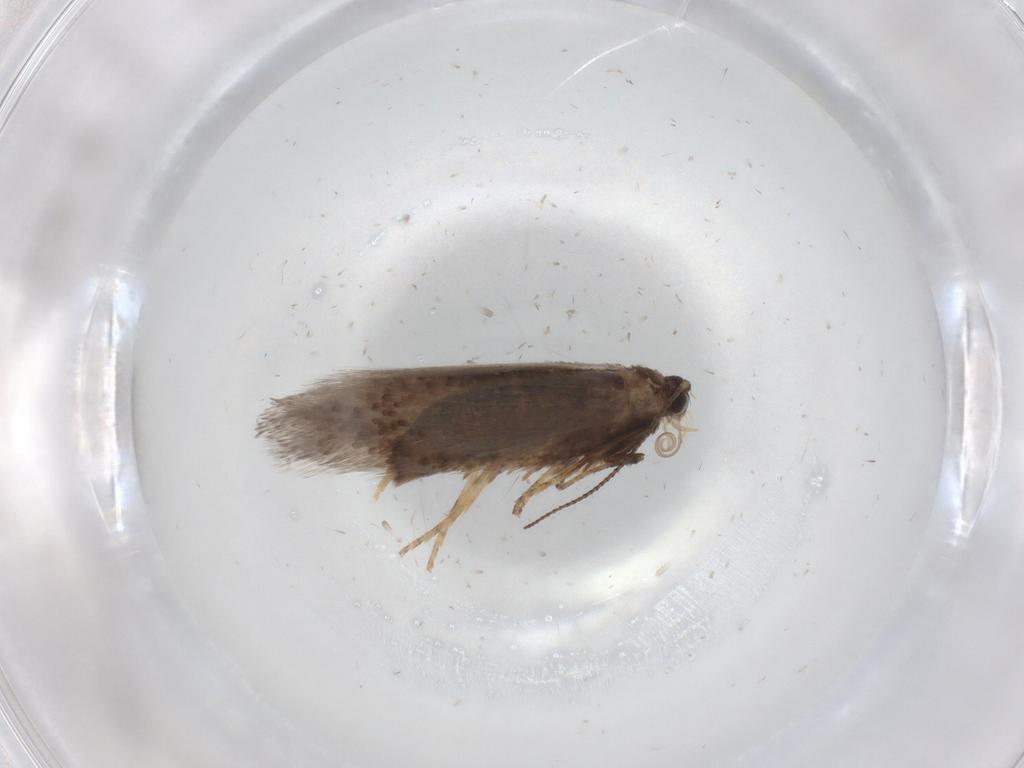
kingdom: Animalia
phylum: Arthropoda
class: Insecta
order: Lepidoptera
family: Nepticulidae
